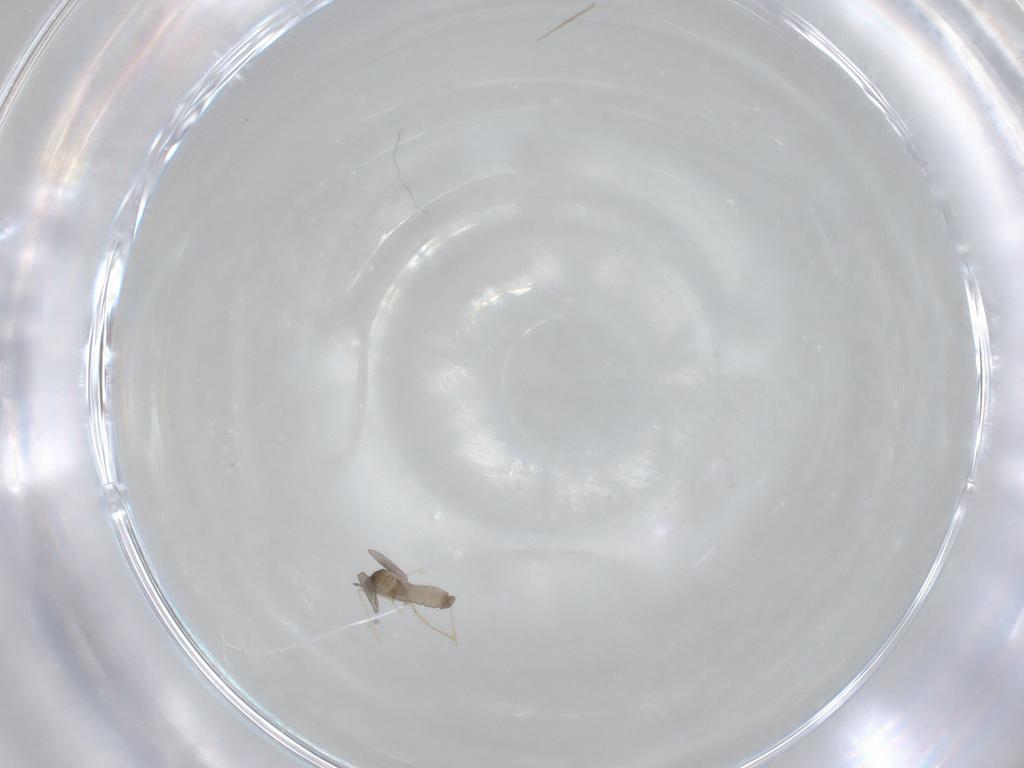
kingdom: Animalia
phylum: Arthropoda
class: Insecta
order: Diptera
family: Cecidomyiidae
